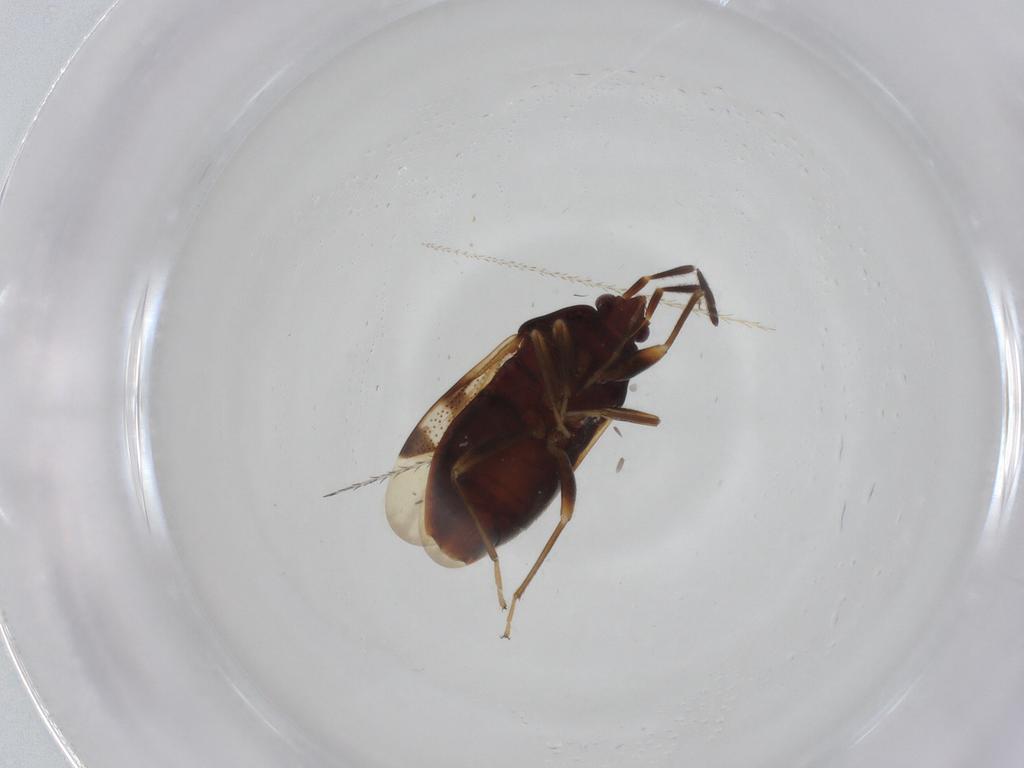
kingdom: Animalia
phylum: Arthropoda
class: Insecta
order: Hemiptera
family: Rhyparochromidae
